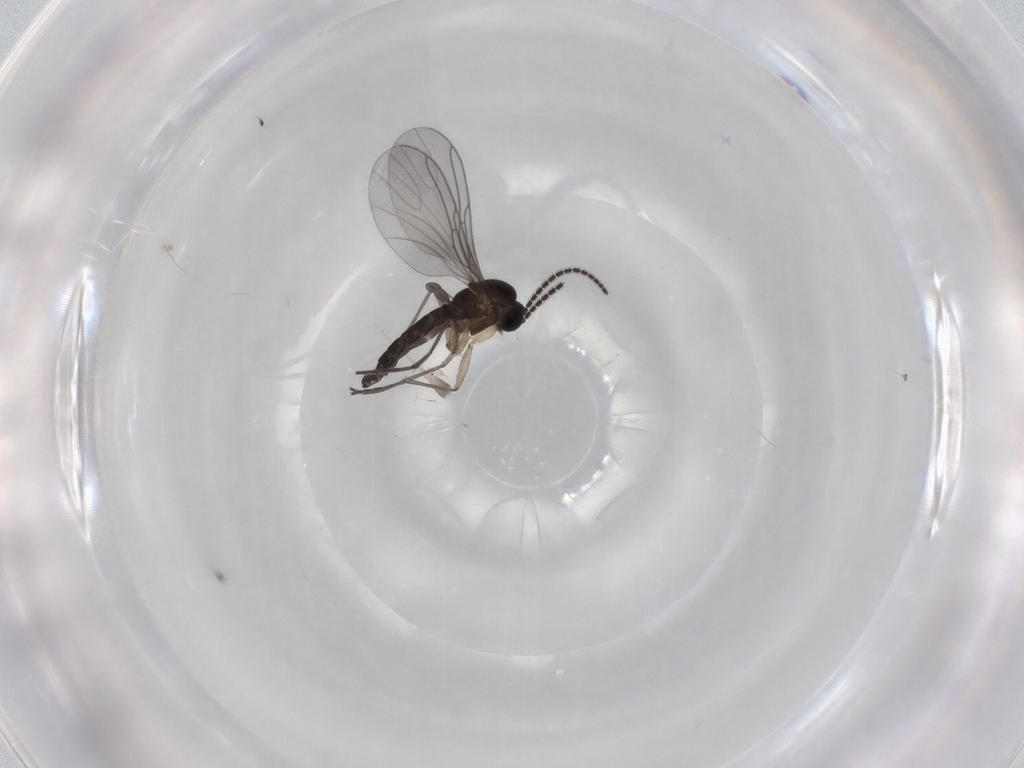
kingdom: Animalia
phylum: Arthropoda
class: Insecta
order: Diptera
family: Sciaridae
